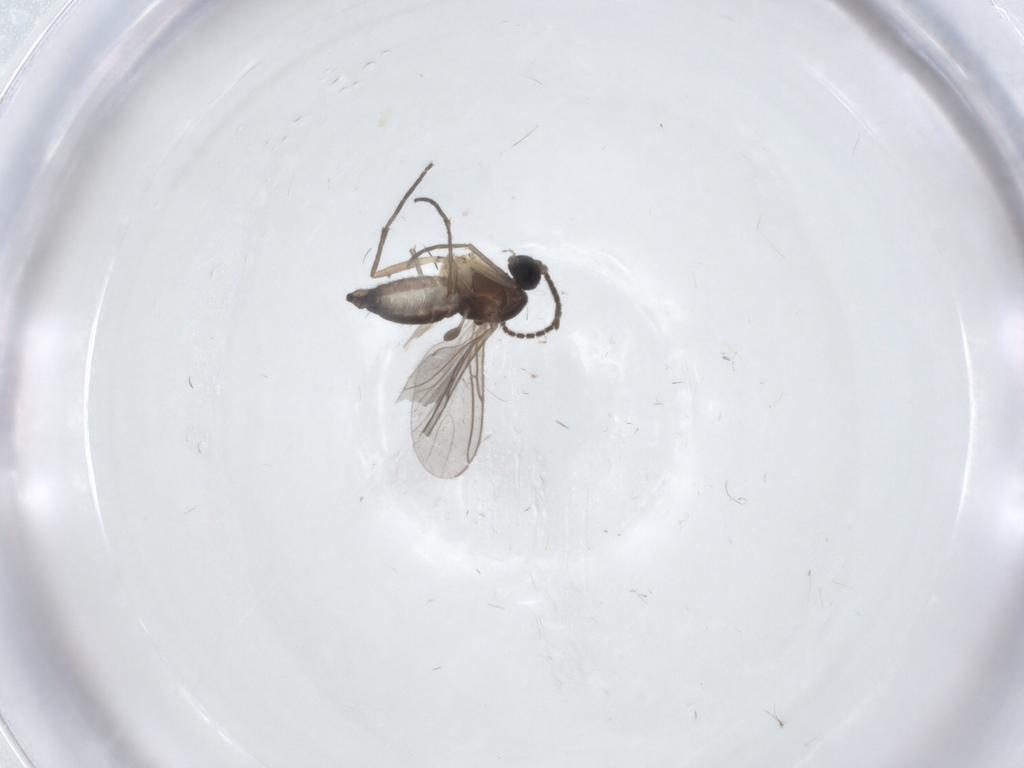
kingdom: Animalia
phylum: Arthropoda
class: Insecta
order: Diptera
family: Sciaridae
